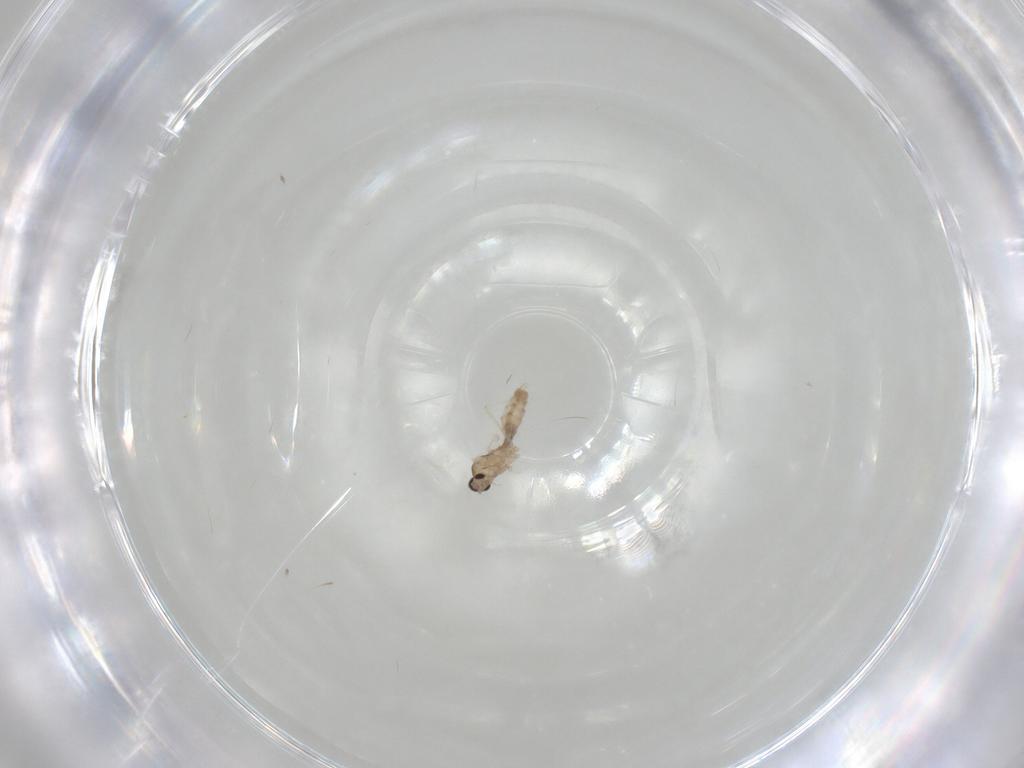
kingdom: Animalia
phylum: Arthropoda
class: Insecta
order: Diptera
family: Cecidomyiidae
